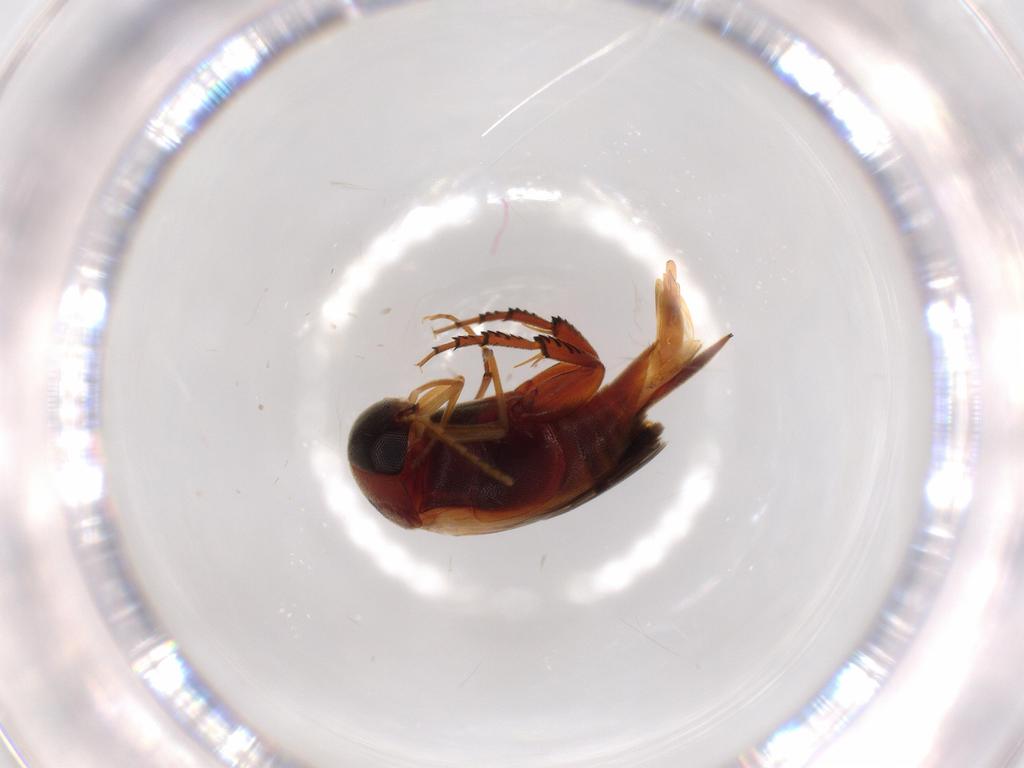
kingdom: Animalia
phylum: Arthropoda
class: Insecta
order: Coleoptera
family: Mordellidae
